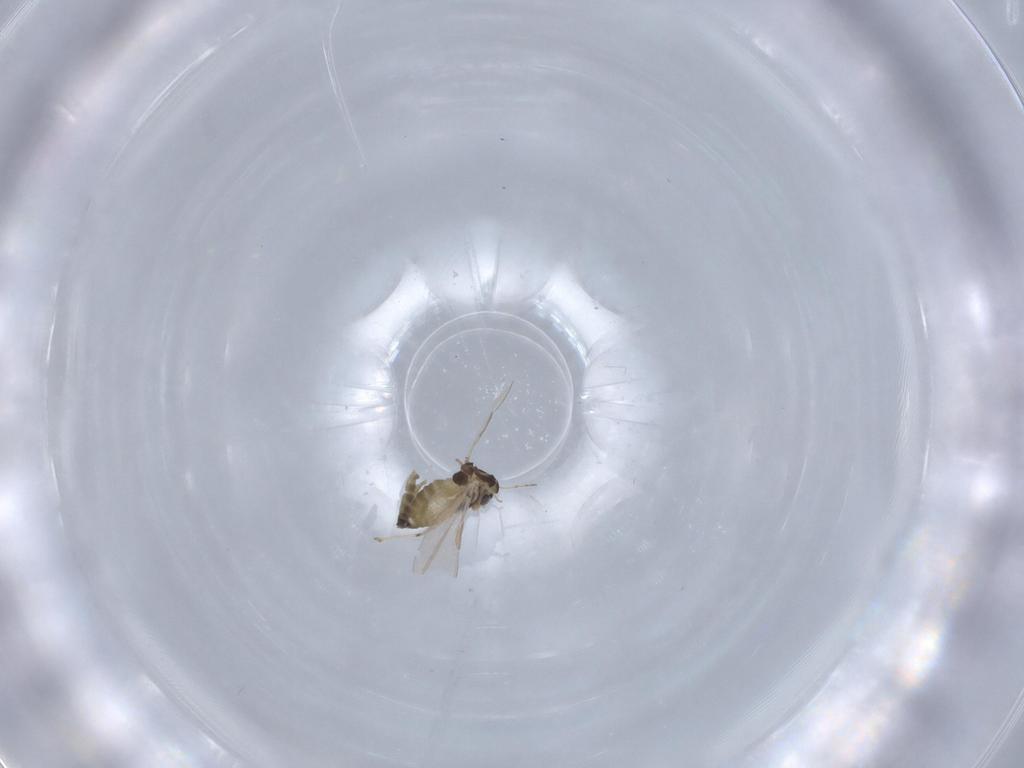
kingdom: Animalia
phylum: Arthropoda
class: Insecta
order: Diptera
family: Chironomidae
